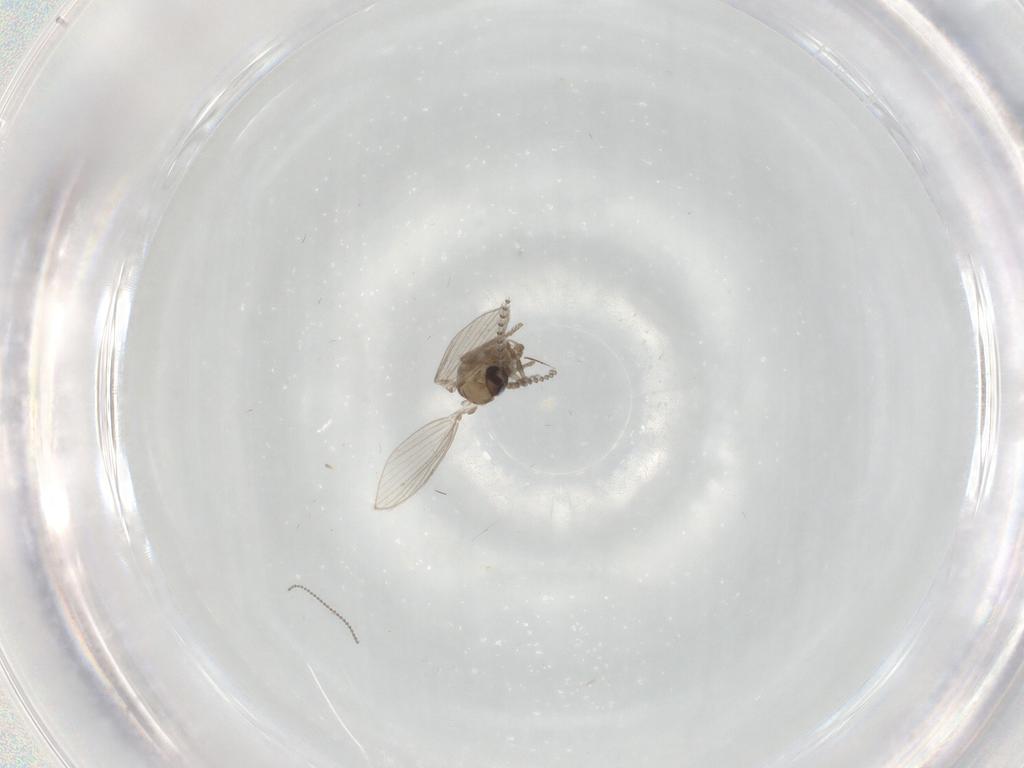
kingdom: Animalia
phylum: Arthropoda
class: Insecta
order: Diptera
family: Psychodidae
